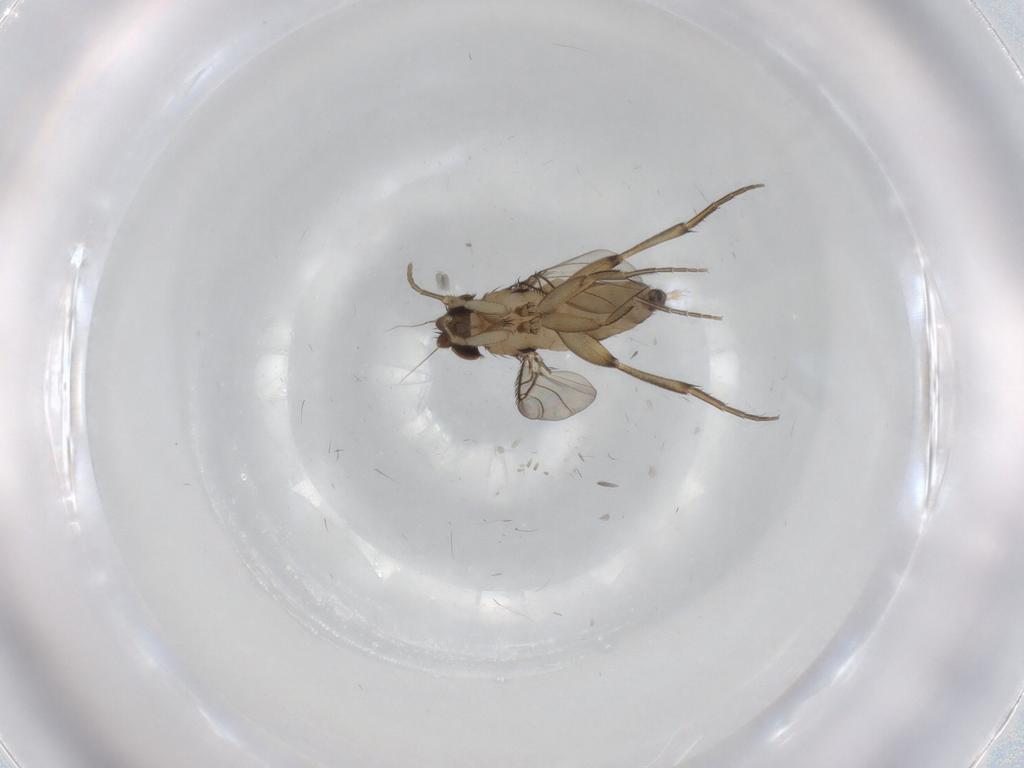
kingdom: Animalia
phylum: Arthropoda
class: Insecta
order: Diptera
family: Phoridae
